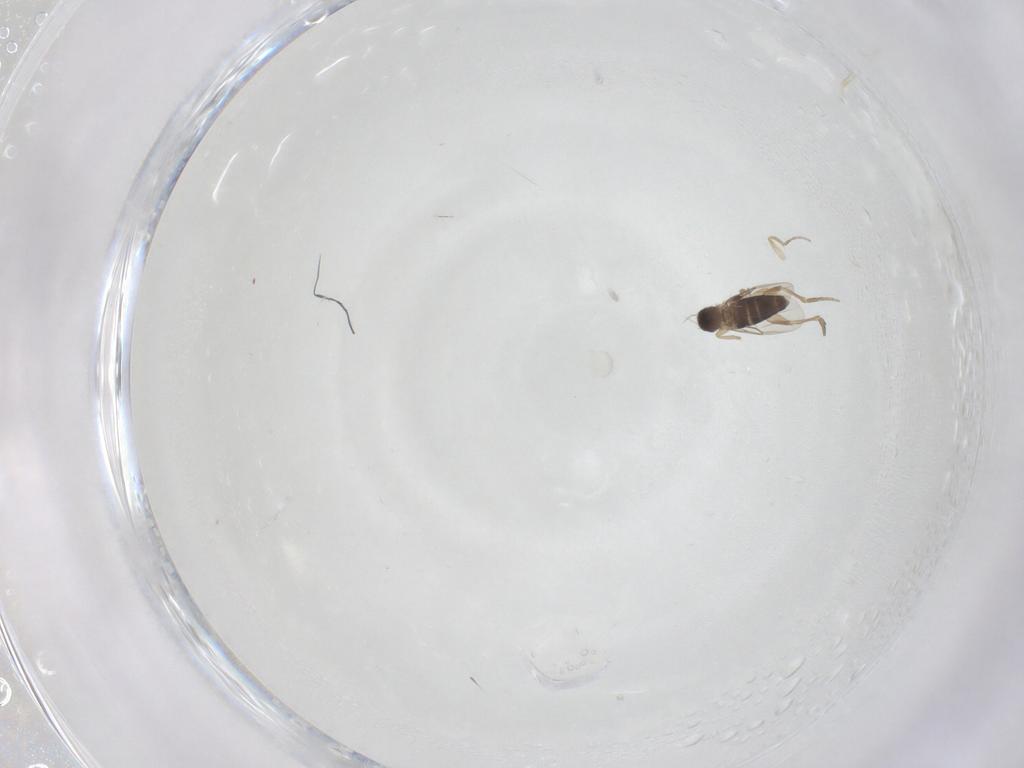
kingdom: Animalia
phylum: Arthropoda
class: Insecta
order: Diptera
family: Phoridae
